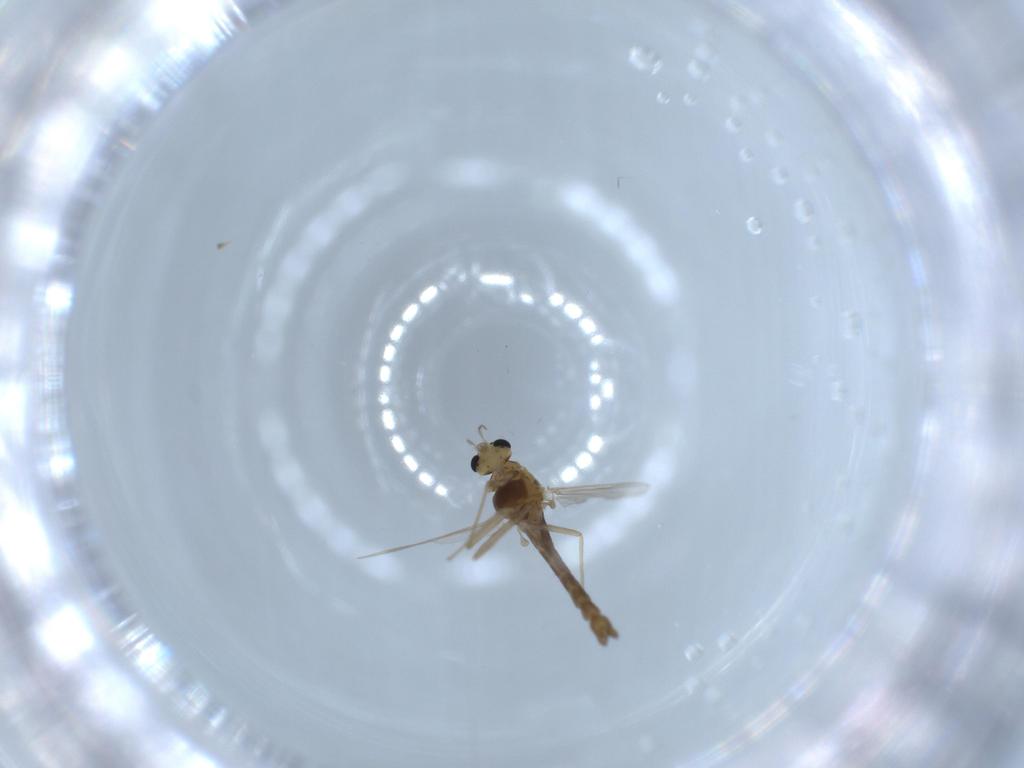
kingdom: Animalia
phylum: Arthropoda
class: Insecta
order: Diptera
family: Chironomidae
